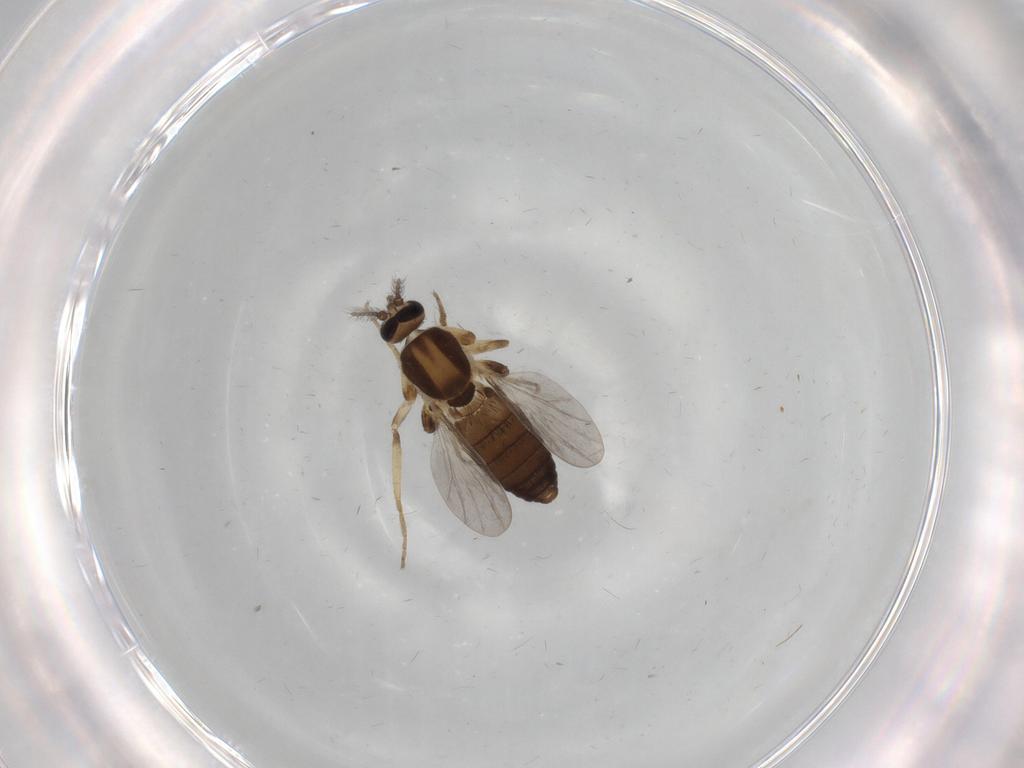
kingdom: Animalia
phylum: Arthropoda
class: Insecta
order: Diptera
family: Ceratopogonidae
